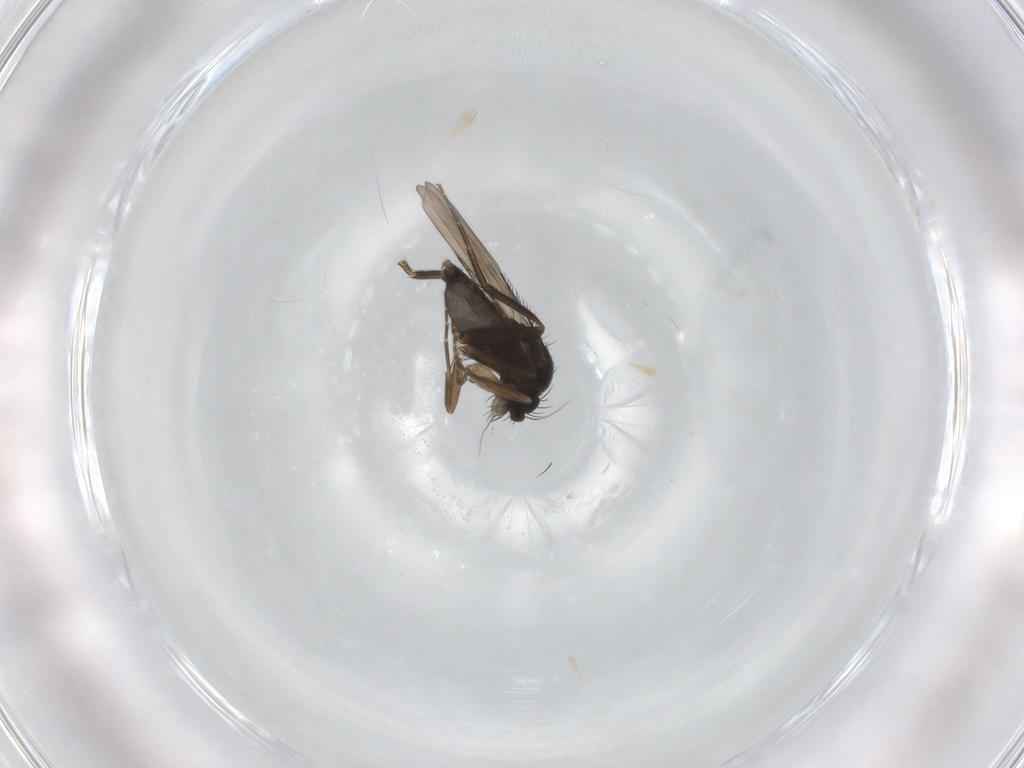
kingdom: Animalia
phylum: Arthropoda
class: Insecta
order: Diptera
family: Phoridae
